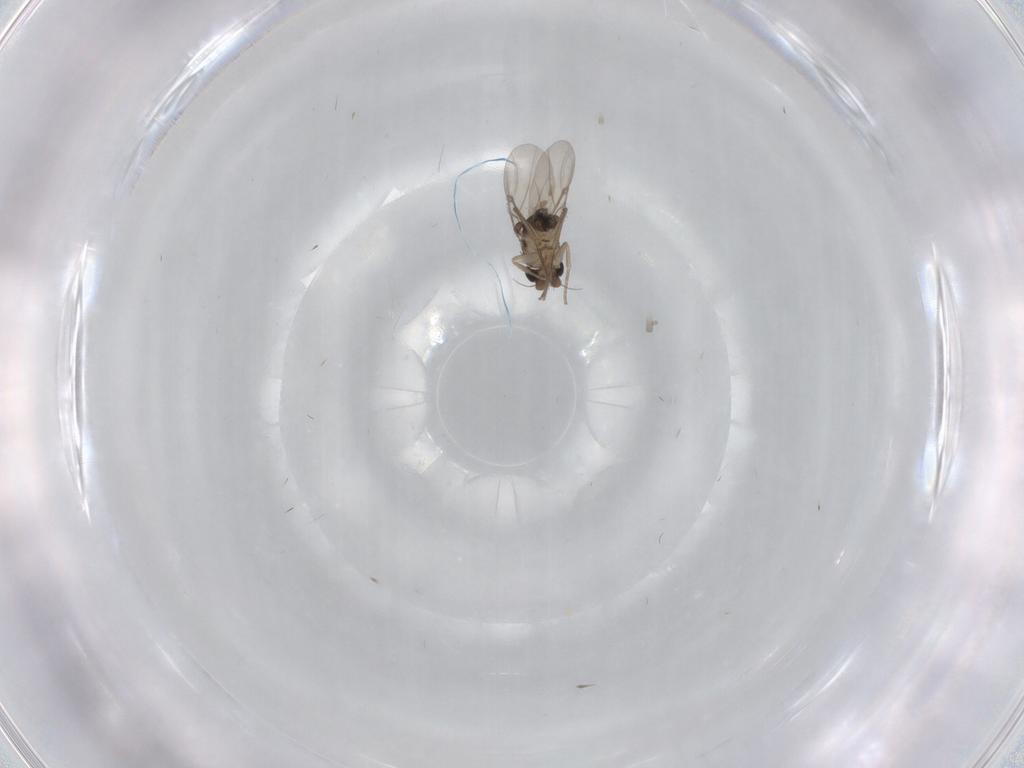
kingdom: Animalia
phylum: Arthropoda
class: Insecta
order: Diptera
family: Phoridae
